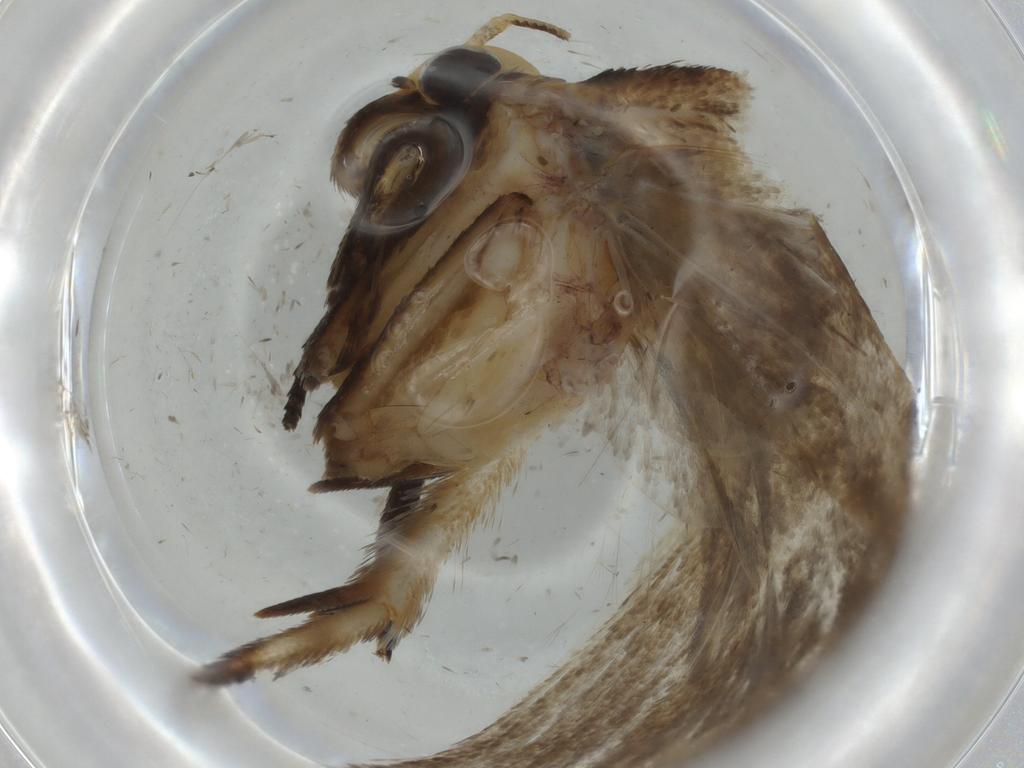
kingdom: Animalia
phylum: Arthropoda
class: Insecta
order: Lepidoptera
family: Oecophoridae
